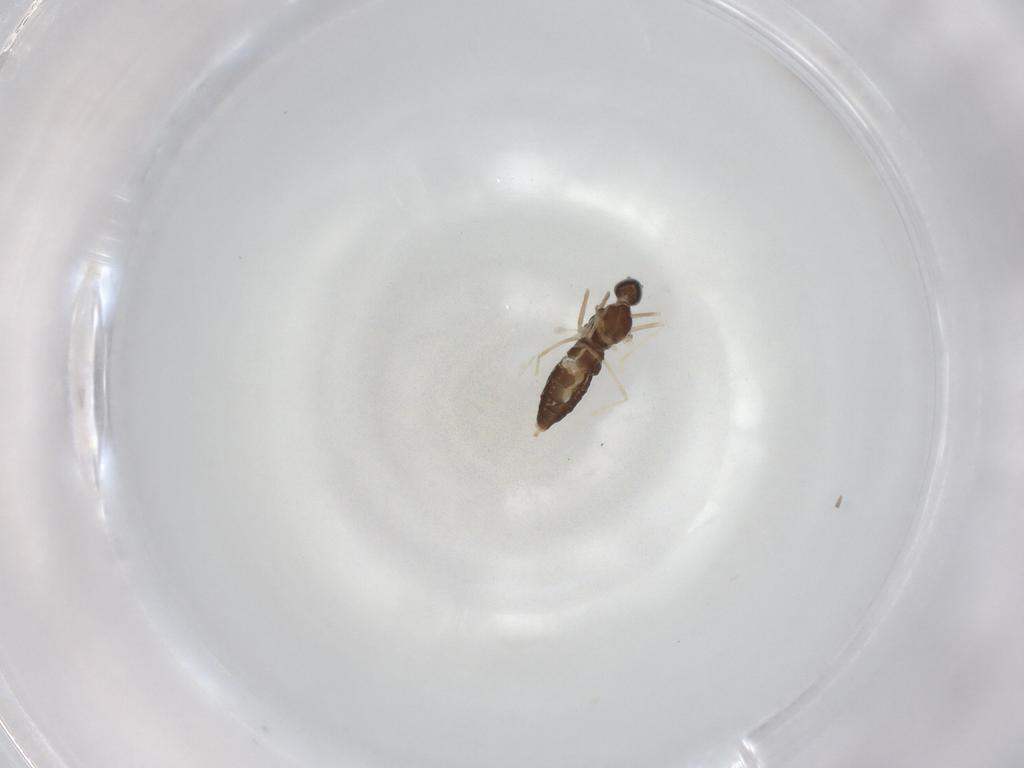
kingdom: Animalia
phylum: Arthropoda
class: Insecta
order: Diptera
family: Cecidomyiidae
